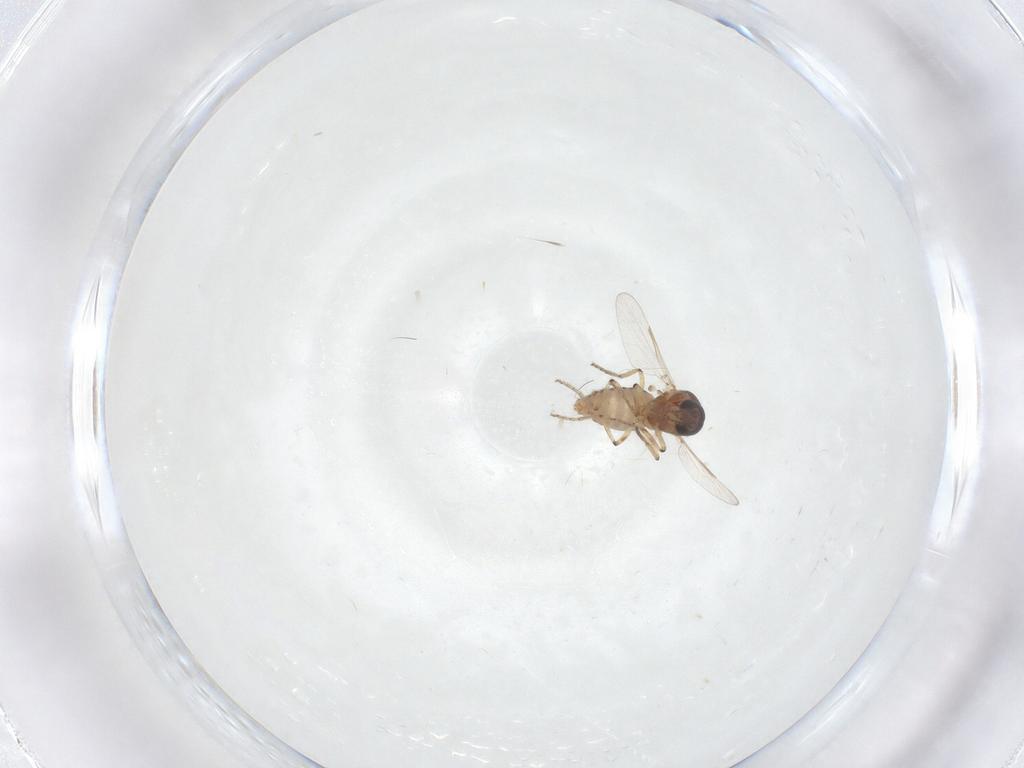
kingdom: Animalia
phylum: Arthropoda
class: Insecta
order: Diptera
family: Ceratopogonidae
